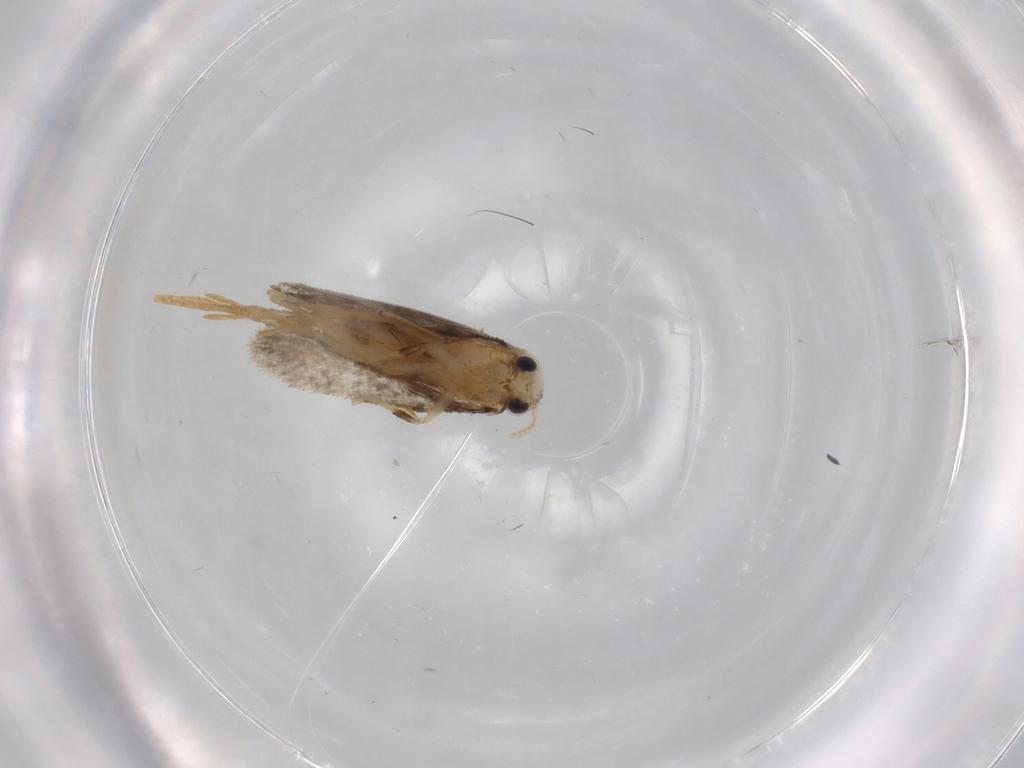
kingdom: Animalia
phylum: Arthropoda
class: Insecta
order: Lepidoptera
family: Psychidae
